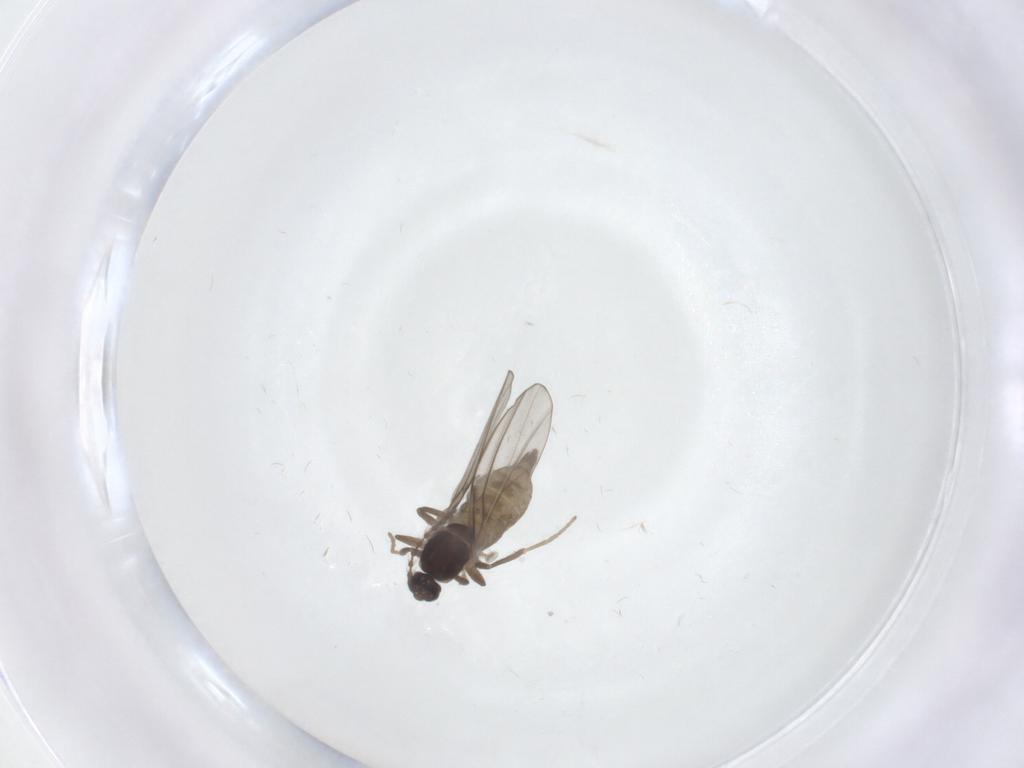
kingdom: Animalia
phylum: Arthropoda
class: Insecta
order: Diptera
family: Cecidomyiidae
